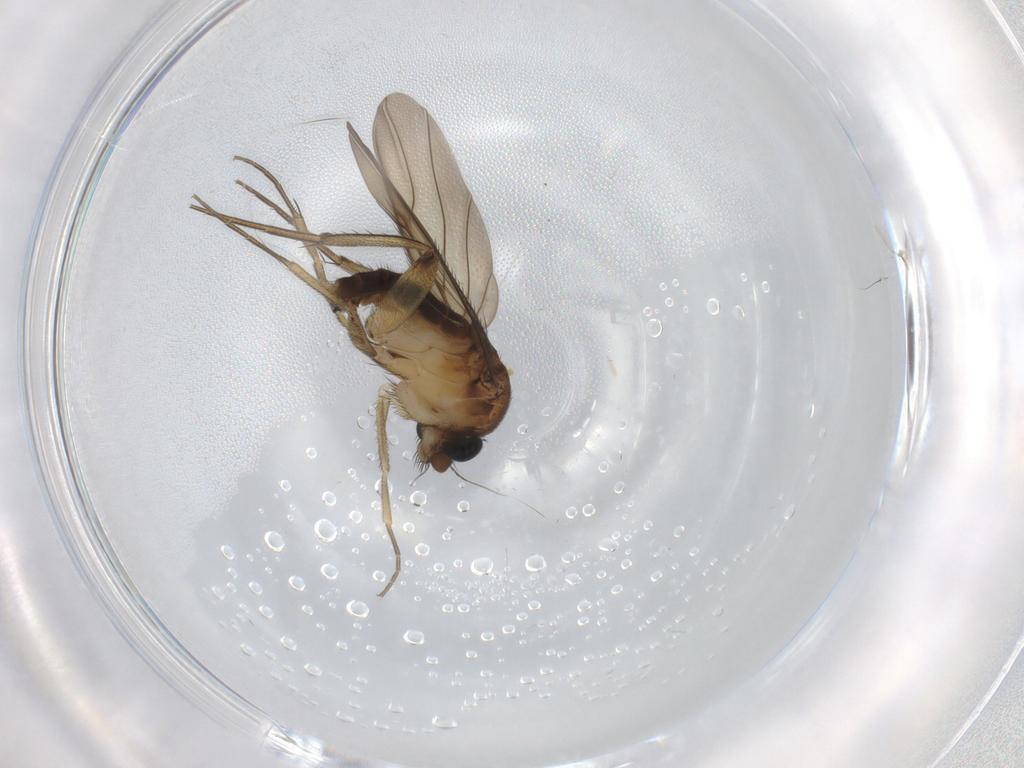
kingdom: Animalia
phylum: Arthropoda
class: Insecta
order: Diptera
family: Phoridae
